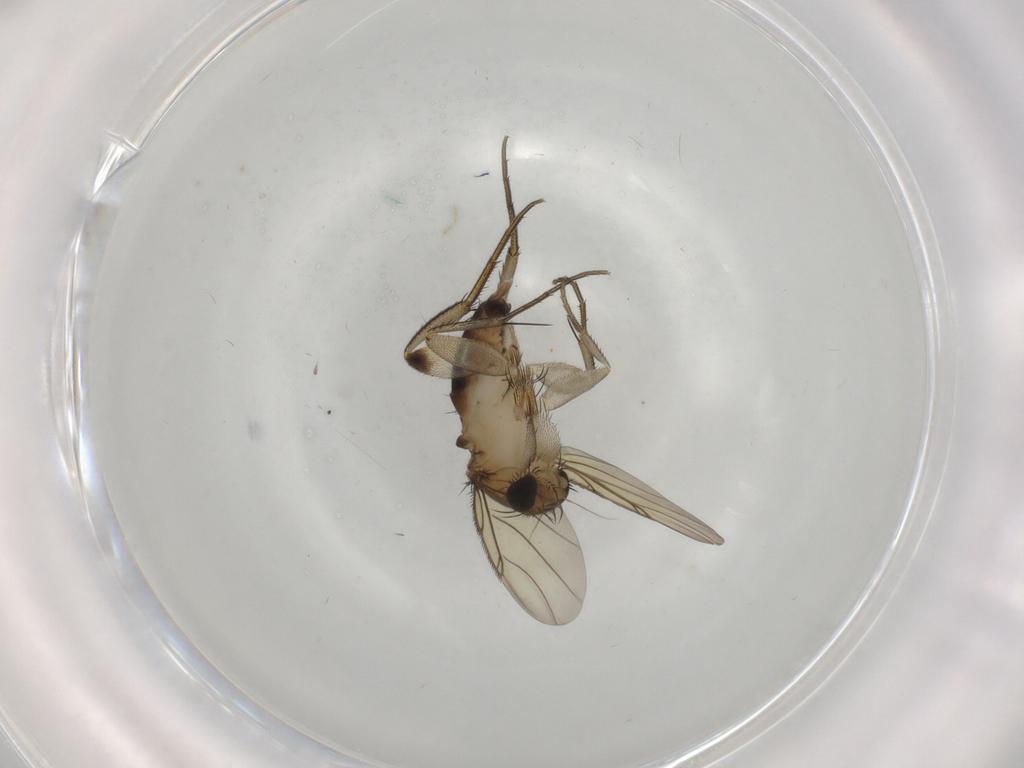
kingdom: Animalia
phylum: Arthropoda
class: Insecta
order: Diptera
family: Phoridae
